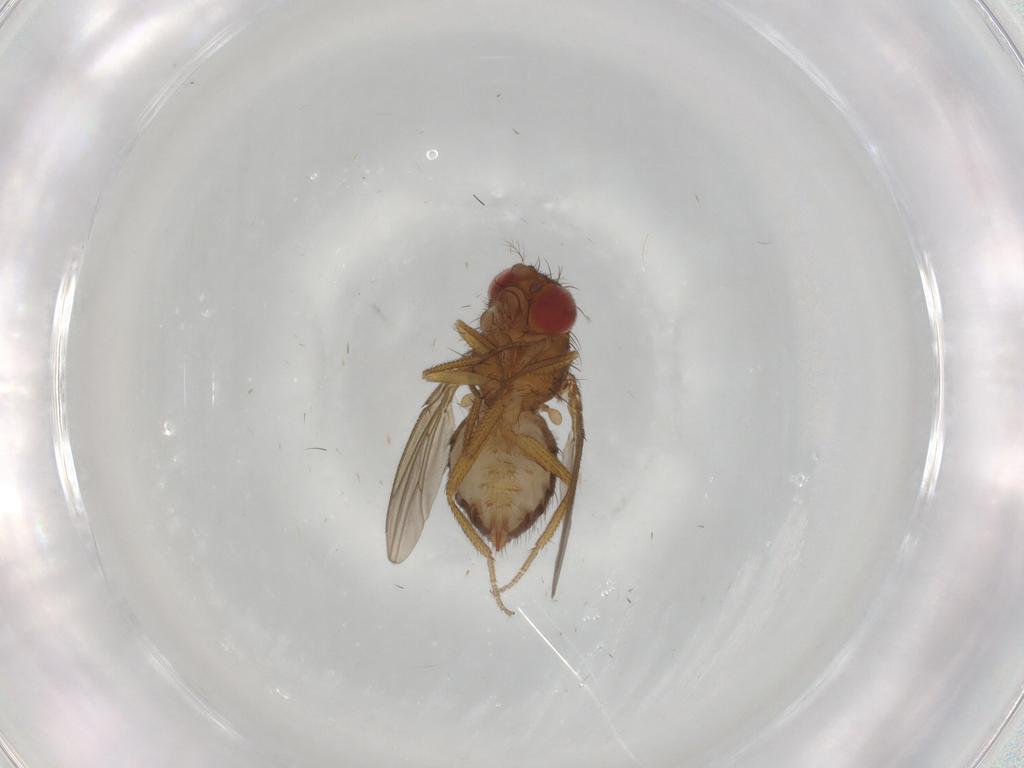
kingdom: Animalia
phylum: Arthropoda
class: Insecta
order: Diptera
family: Drosophilidae
